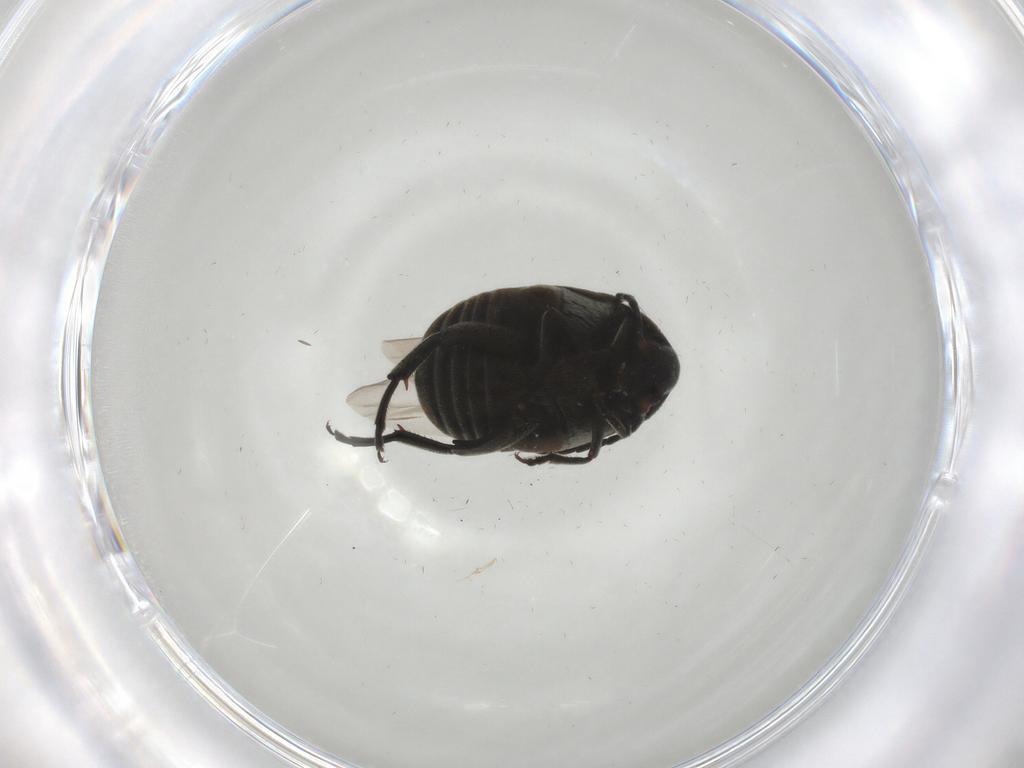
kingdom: Animalia
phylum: Arthropoda
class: Insecta
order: Coleoptera
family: Chrysomelidae
